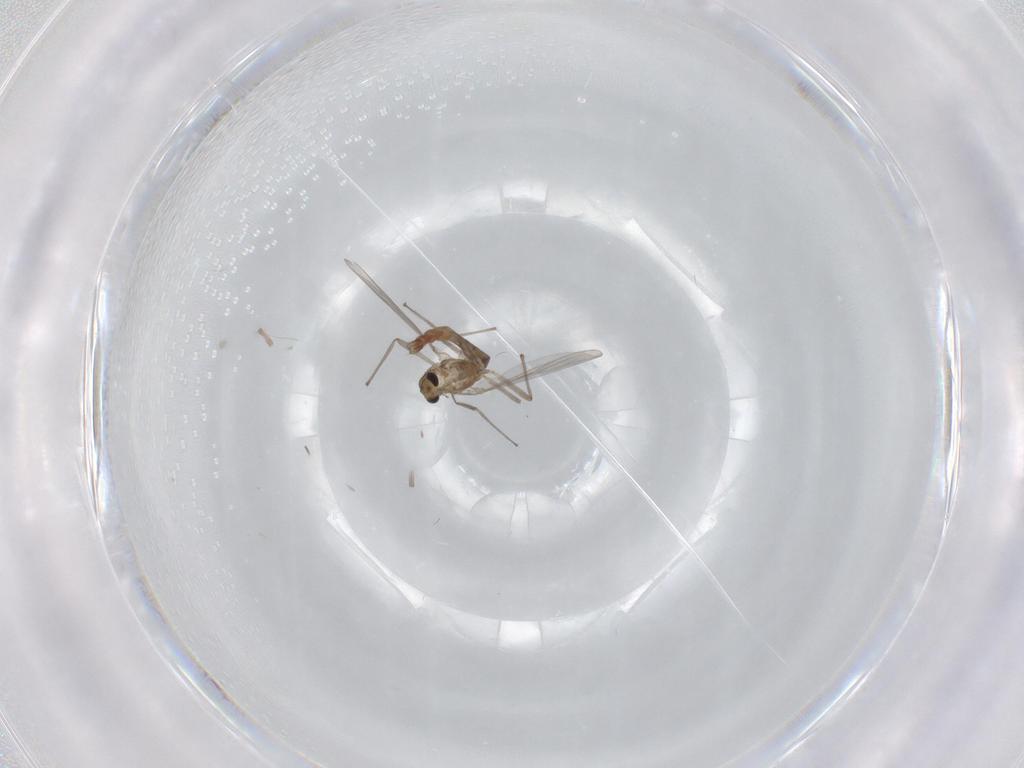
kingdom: Animalia
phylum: Arthropoda
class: Insecta
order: Diptera
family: Chironomidae
